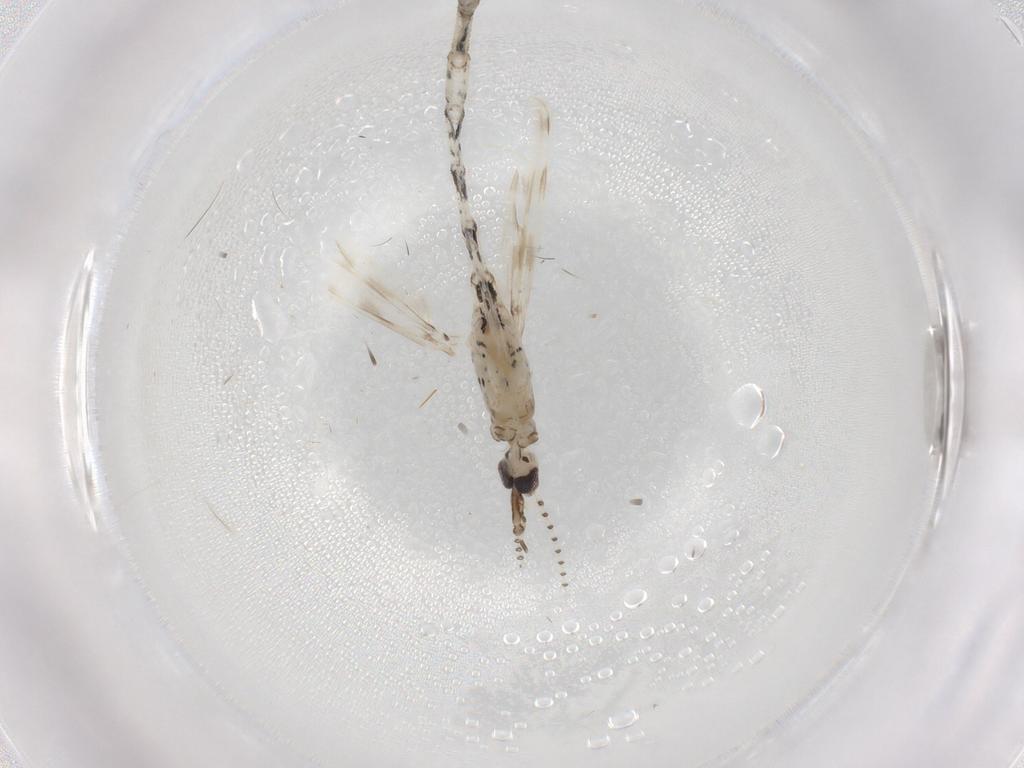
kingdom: Animalia
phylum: Arthropoda
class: Insecta
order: Diptera
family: Chaoboridae
